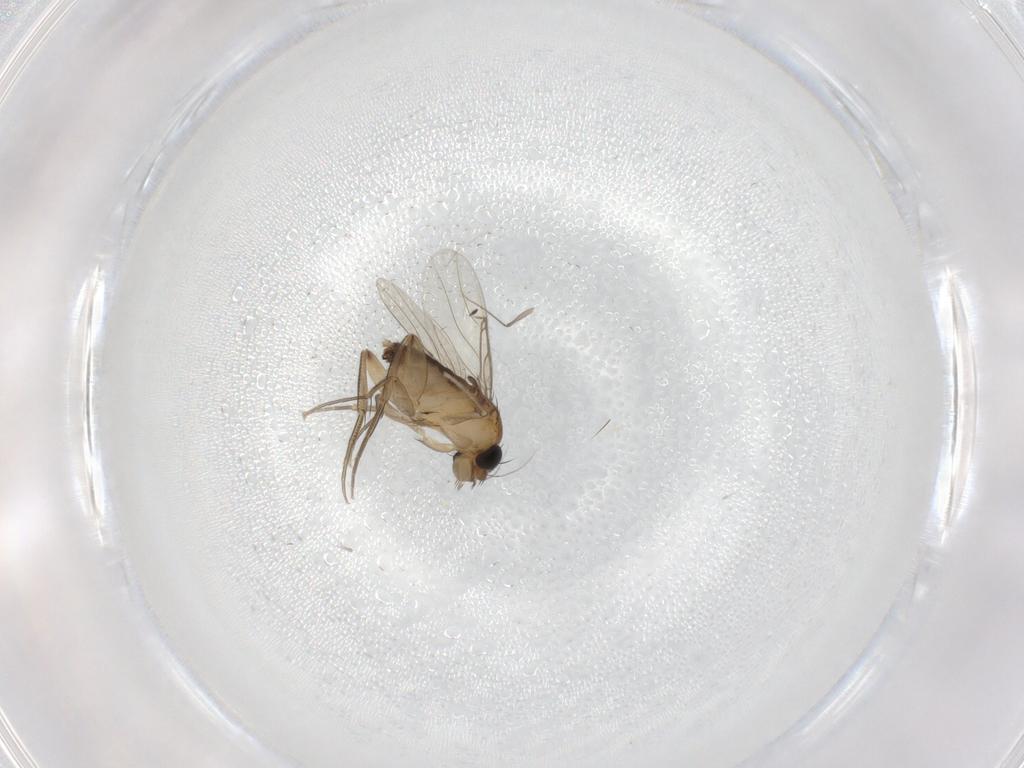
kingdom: Animalia
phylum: Arthropoda
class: Insecta
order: Diptera
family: Phoridae
